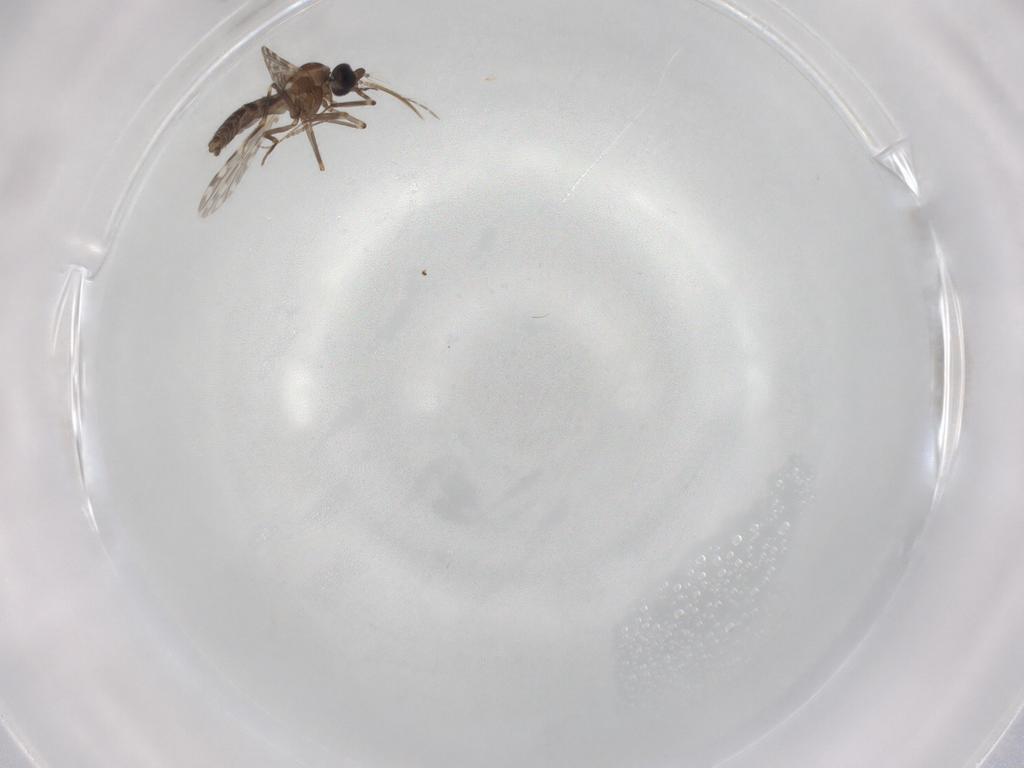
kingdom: Animalia
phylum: Arthropoda
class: Insecta
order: Diptera
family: Ceratopogonidae
